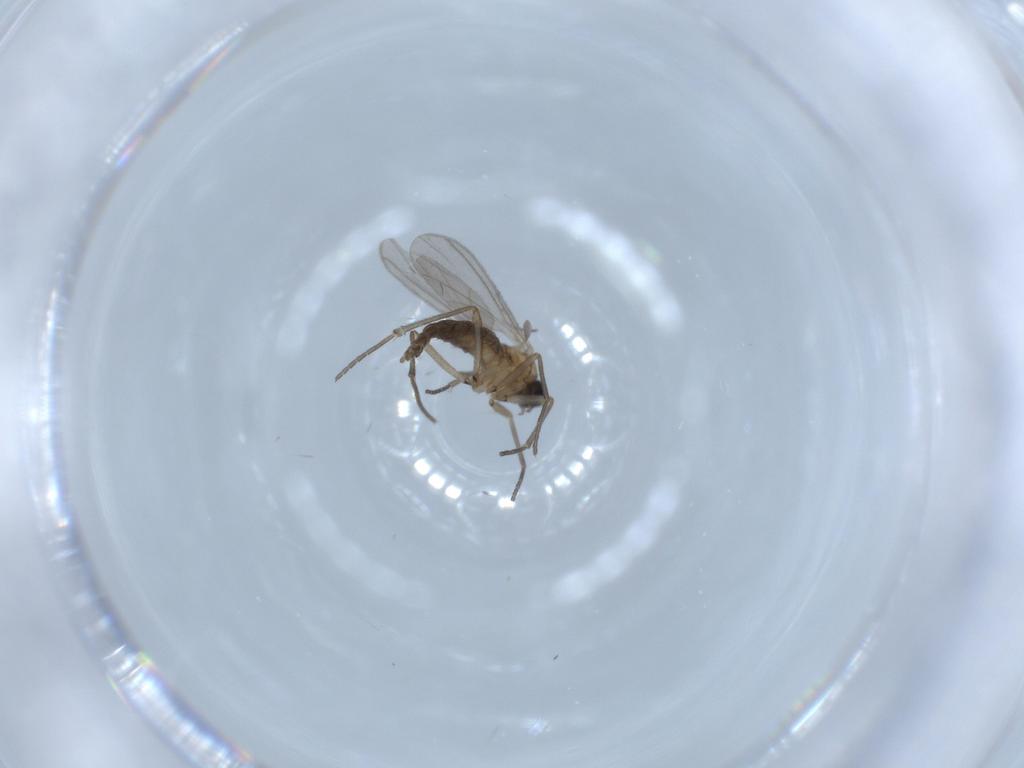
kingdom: Animalia
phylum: Arthropoda
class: Insecta
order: Diptera
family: Sciaridae
